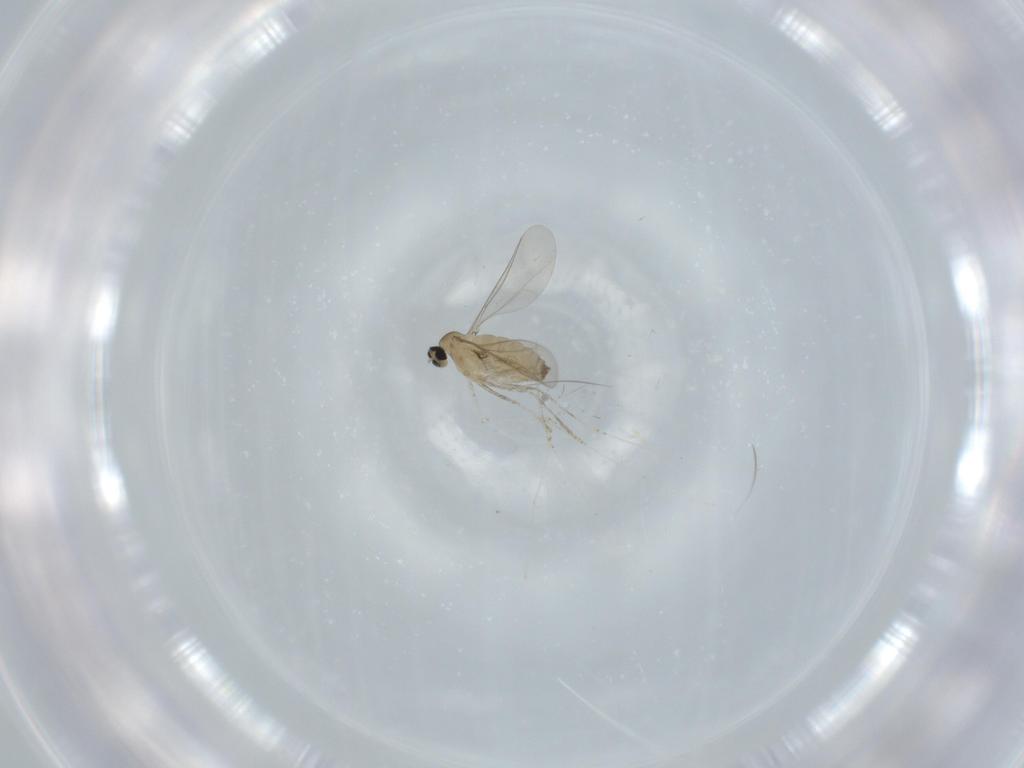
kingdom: Animalia
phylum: Arthropoda
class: Insecta
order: Diptera
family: Cecidomyiidae
